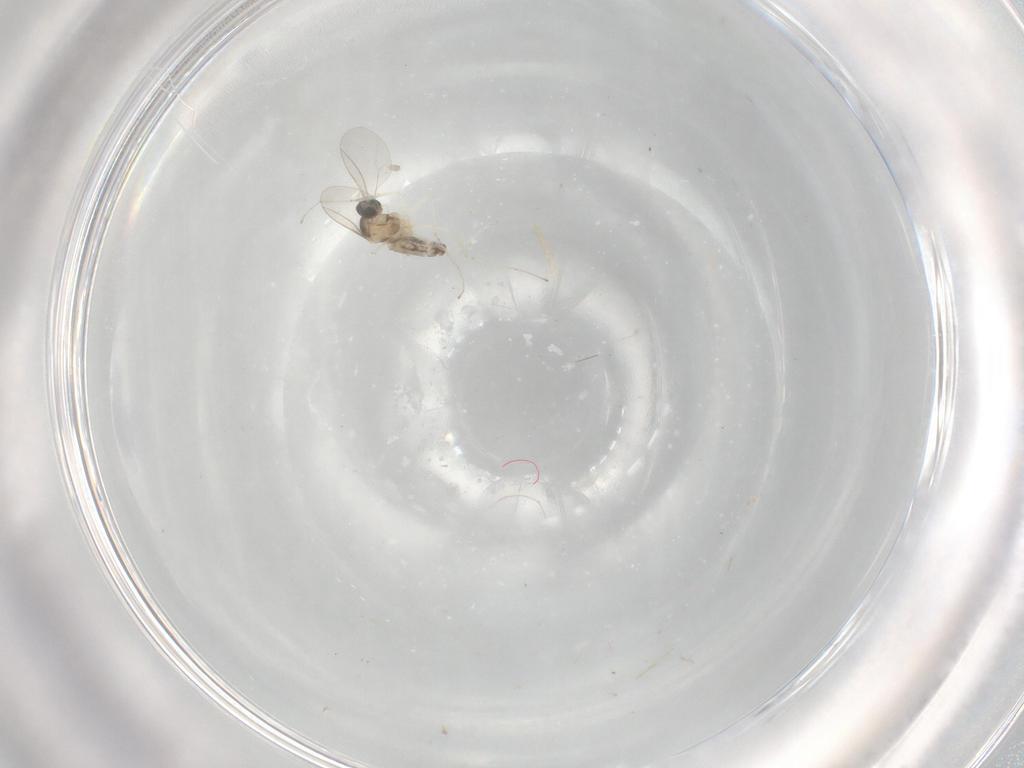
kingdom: Animalia
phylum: Arthropoda
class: Insecta
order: Diptera
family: Cecidomyiidae
